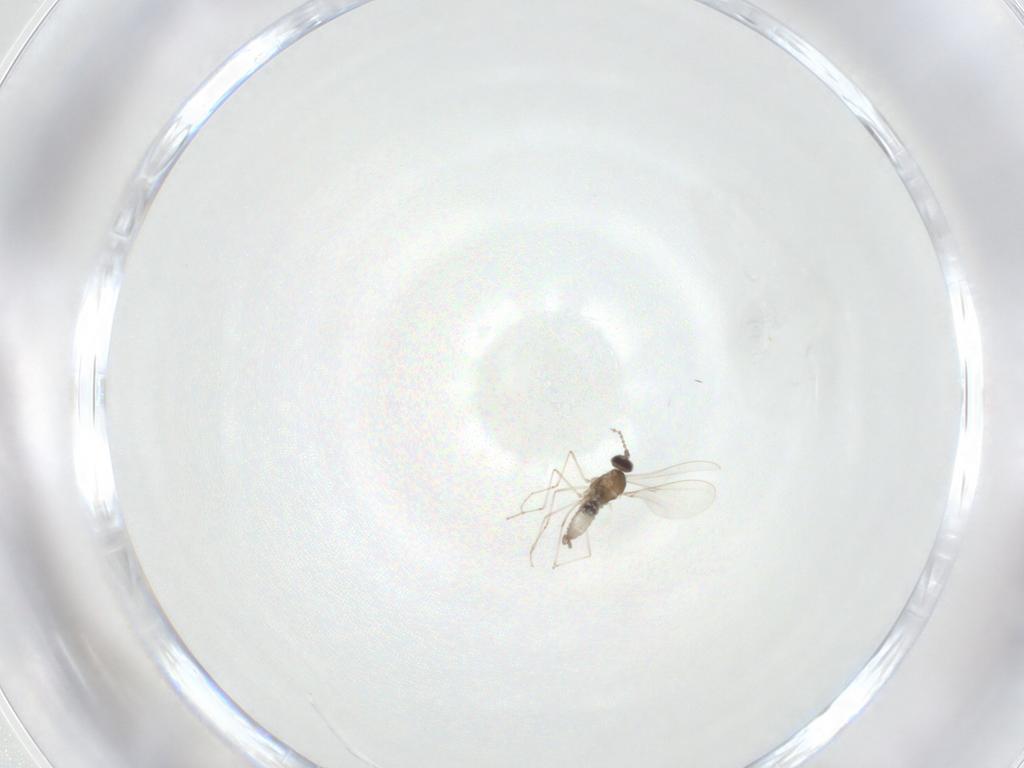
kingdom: Animalia
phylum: Arthropoda
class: Insecta
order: Diptera
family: Cecidomyiidae
